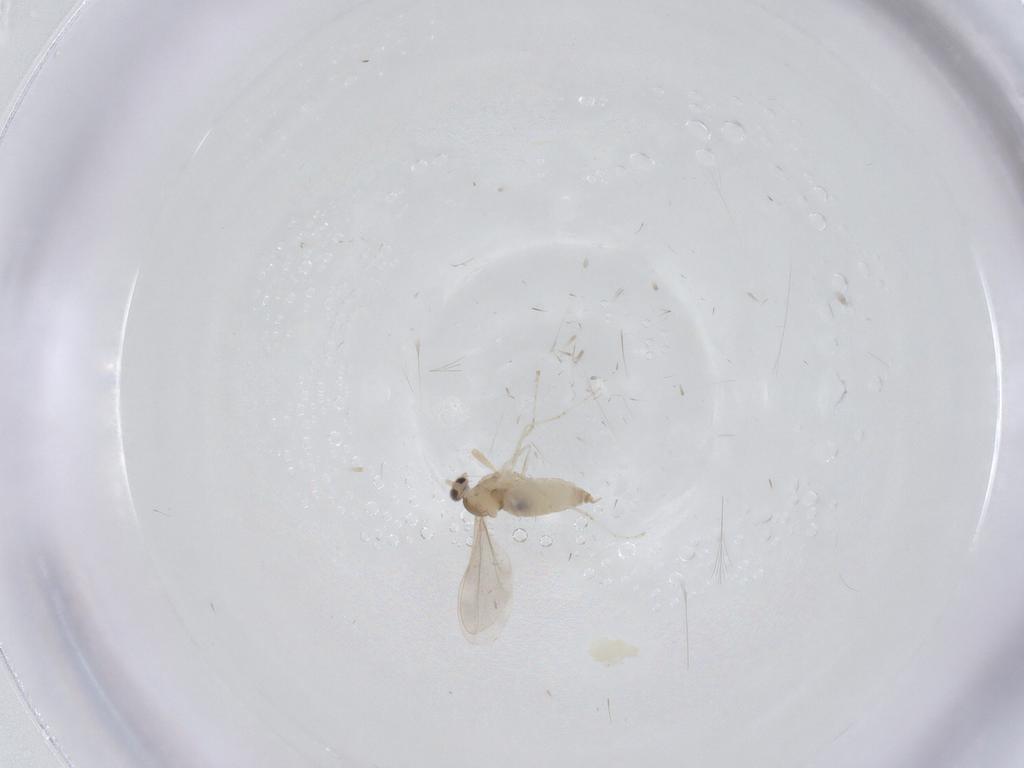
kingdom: Animalia
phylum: Arthropoda
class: Insecta
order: Diptera
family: Cecidomyiidae
